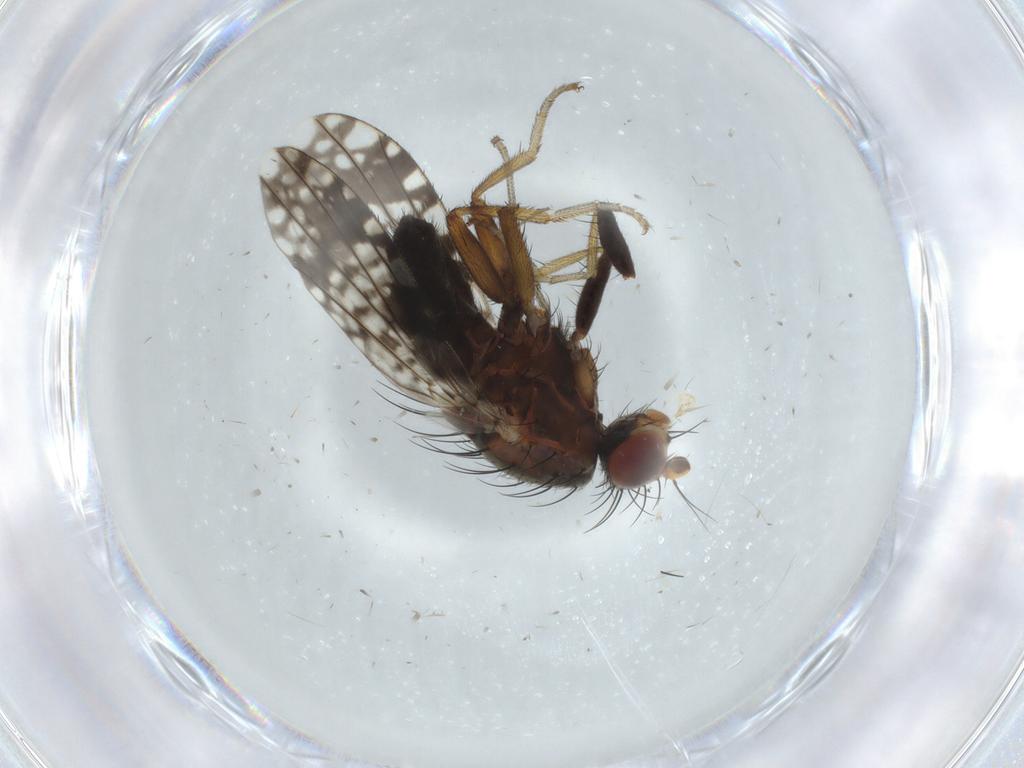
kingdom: Animalia
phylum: Arthropoda
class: Insecta
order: Diptera
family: Tephritidae
